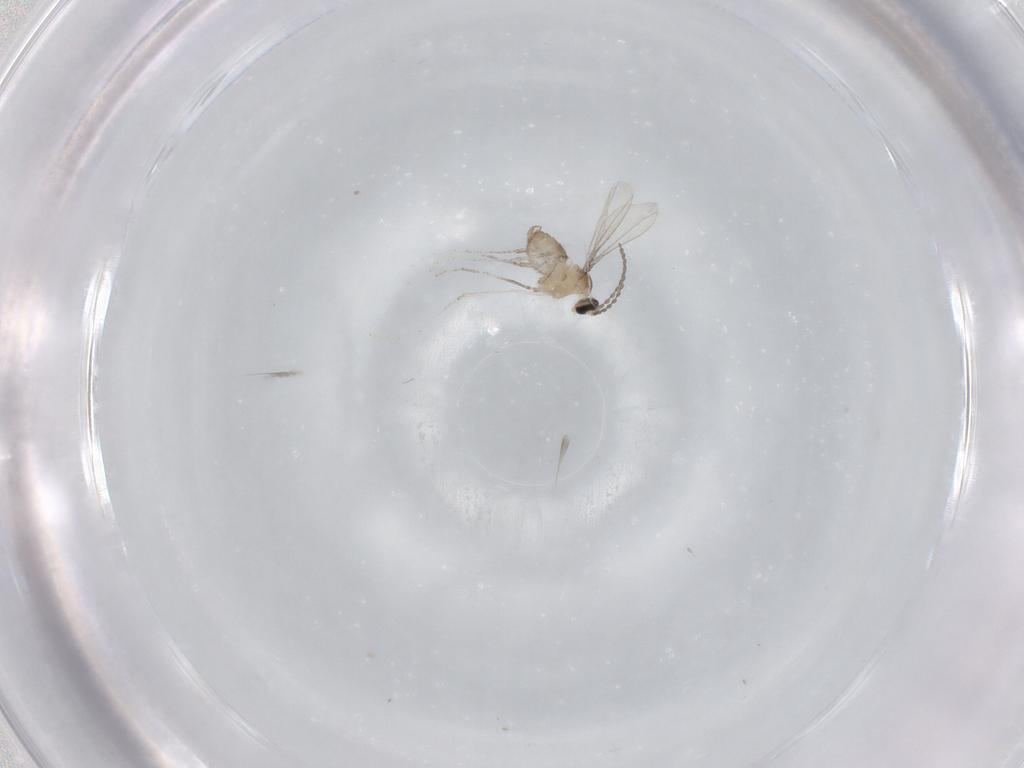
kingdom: Animalia
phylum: Arthropoda
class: Insecta
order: Diptera
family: Cecidomyiidae
